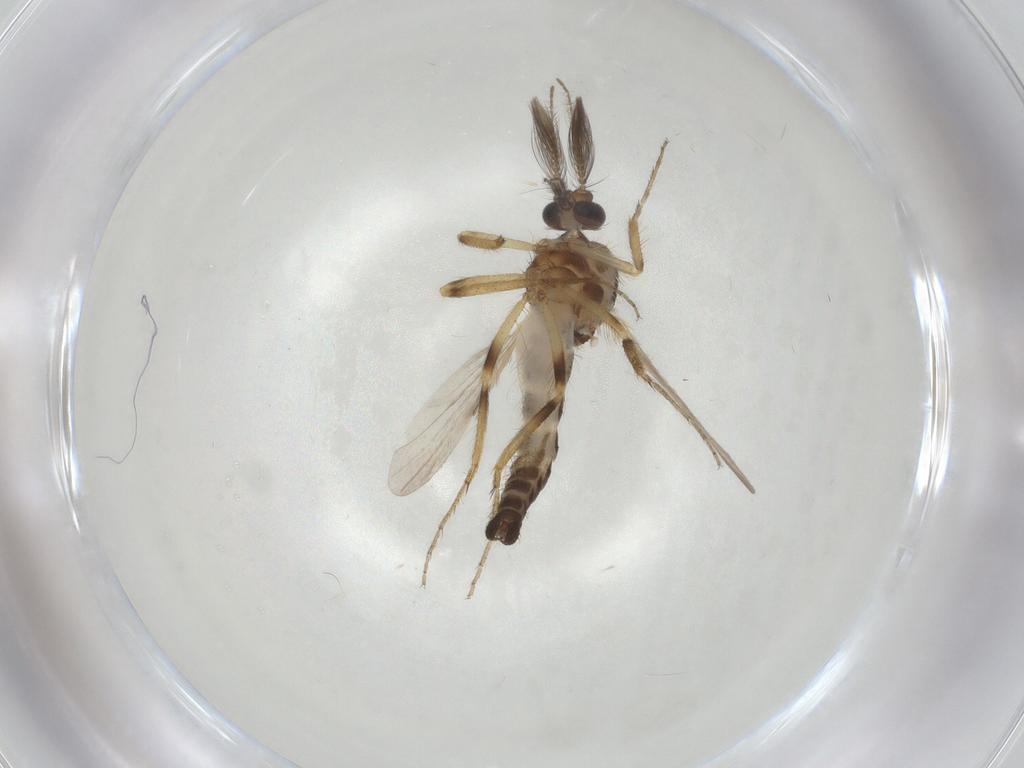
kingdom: Animalia
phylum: Arthropoda
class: Insecta
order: Diptera
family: Ceratopogonidae
